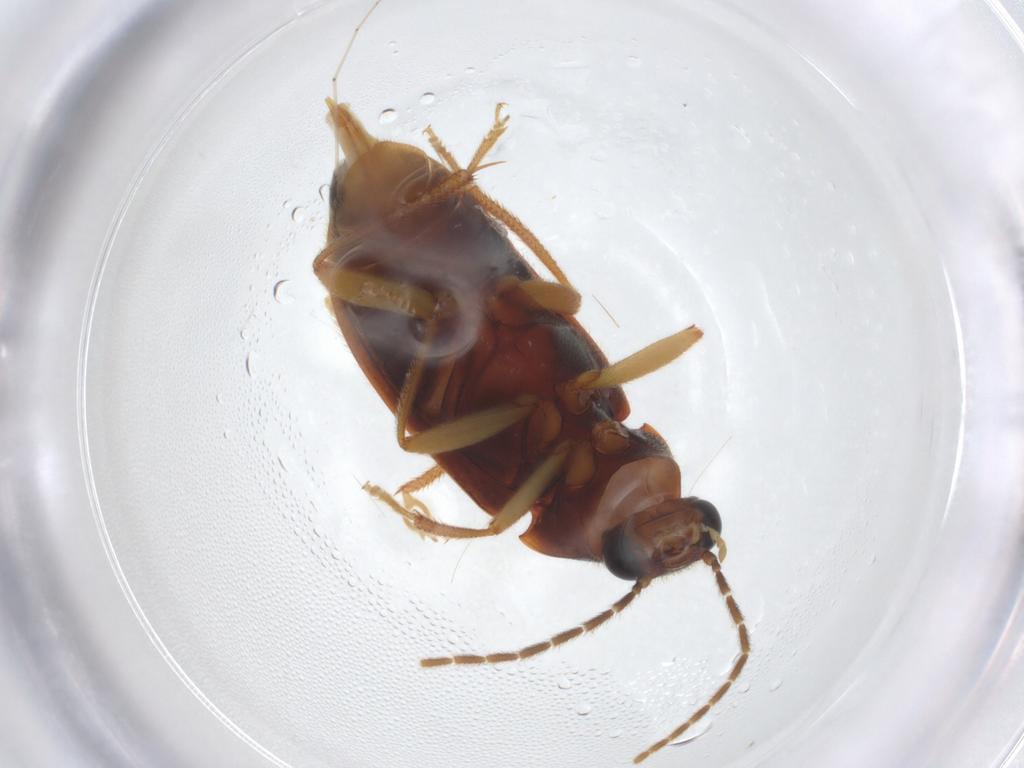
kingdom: Animalia
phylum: Arthropoda
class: Insecta
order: Coleoptera
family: Ptilodactylidae
